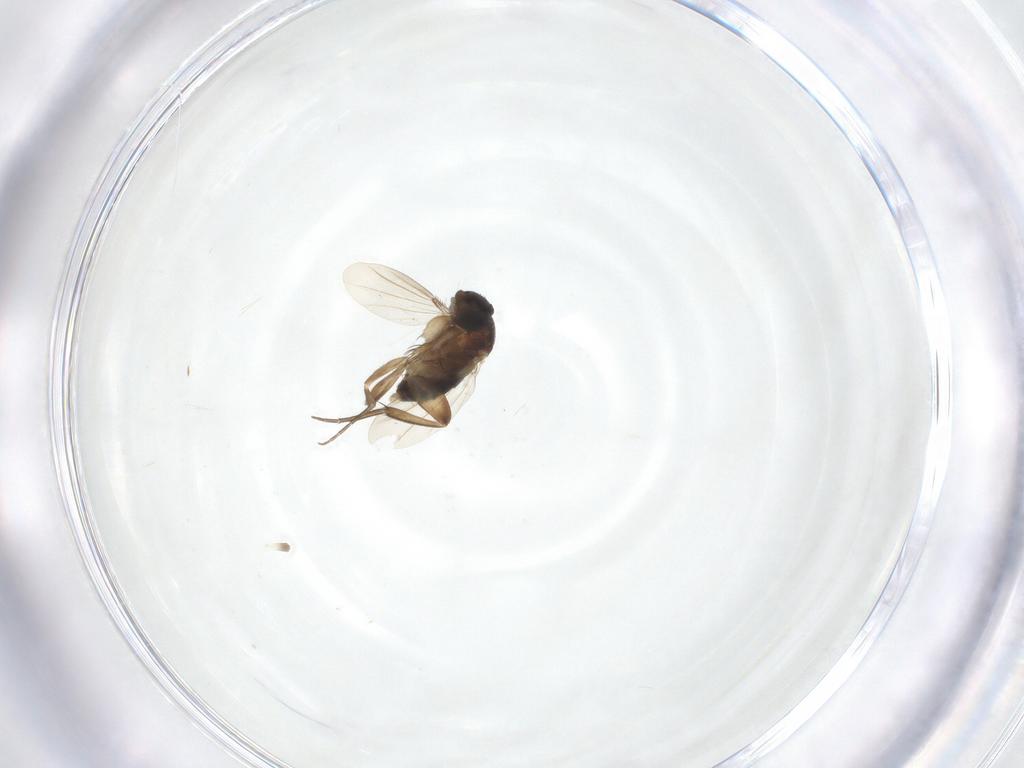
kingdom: Animalia
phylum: Arthropoda
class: Insecta
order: Diptera
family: Phoridae
